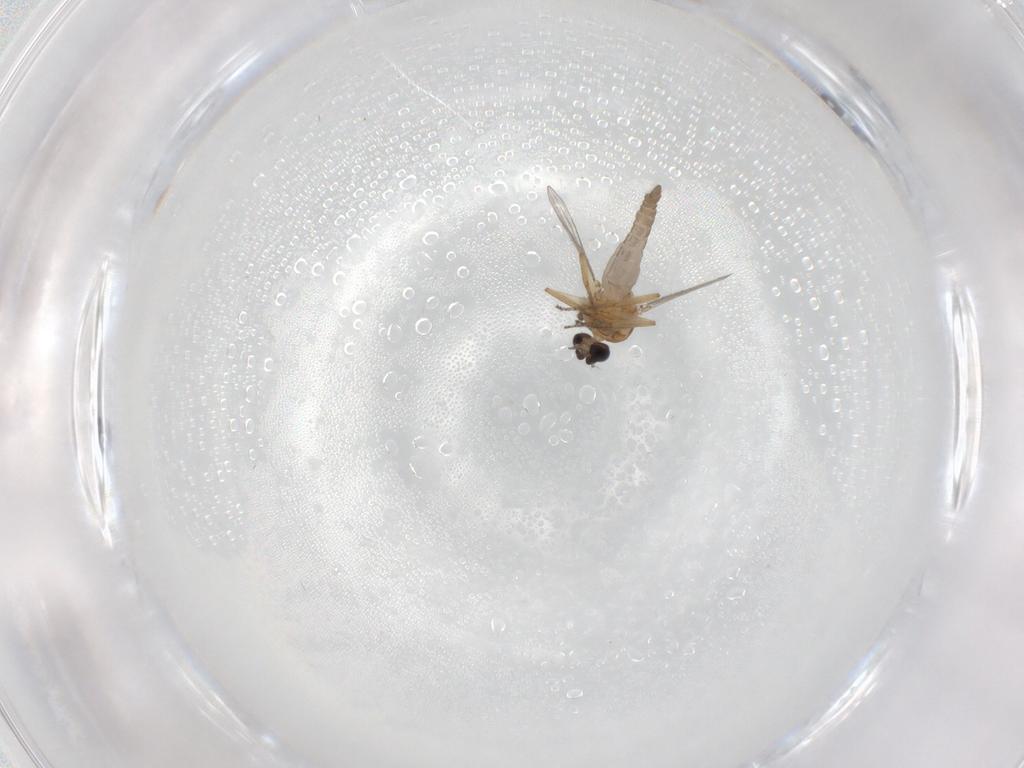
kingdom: Animalia
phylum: Arthropoda
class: Insecta
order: Diptera
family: Ceratopogonidae
